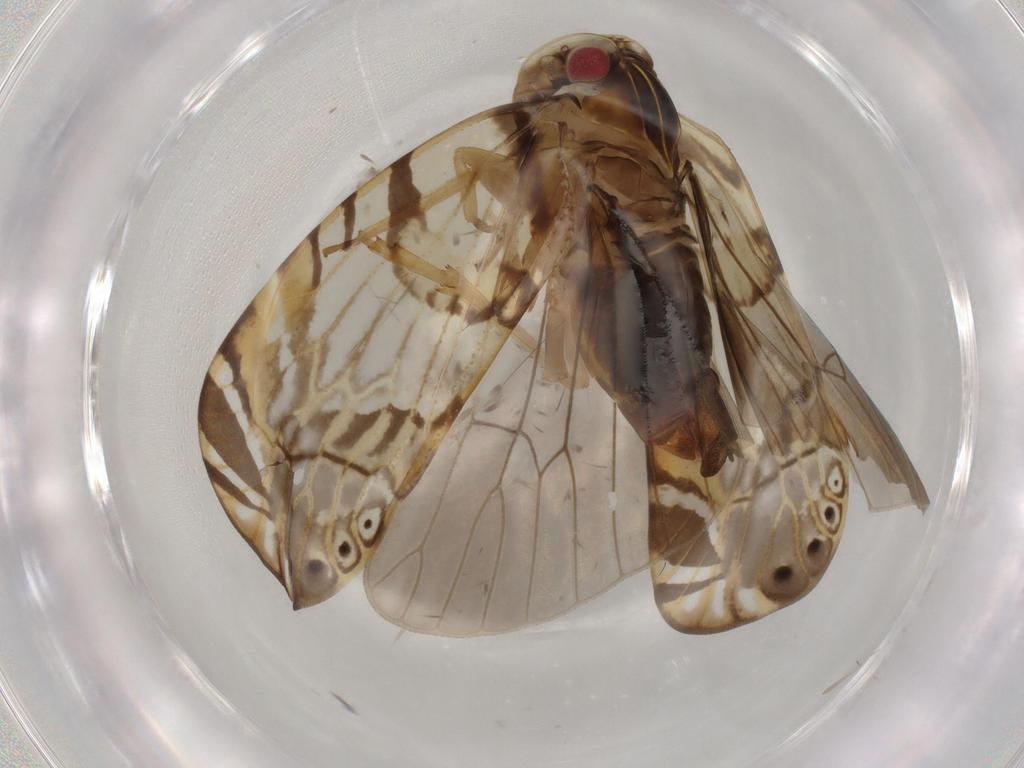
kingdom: Animalia
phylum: Arthropoda
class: Insecta
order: Hemiptera
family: Cixiidae
